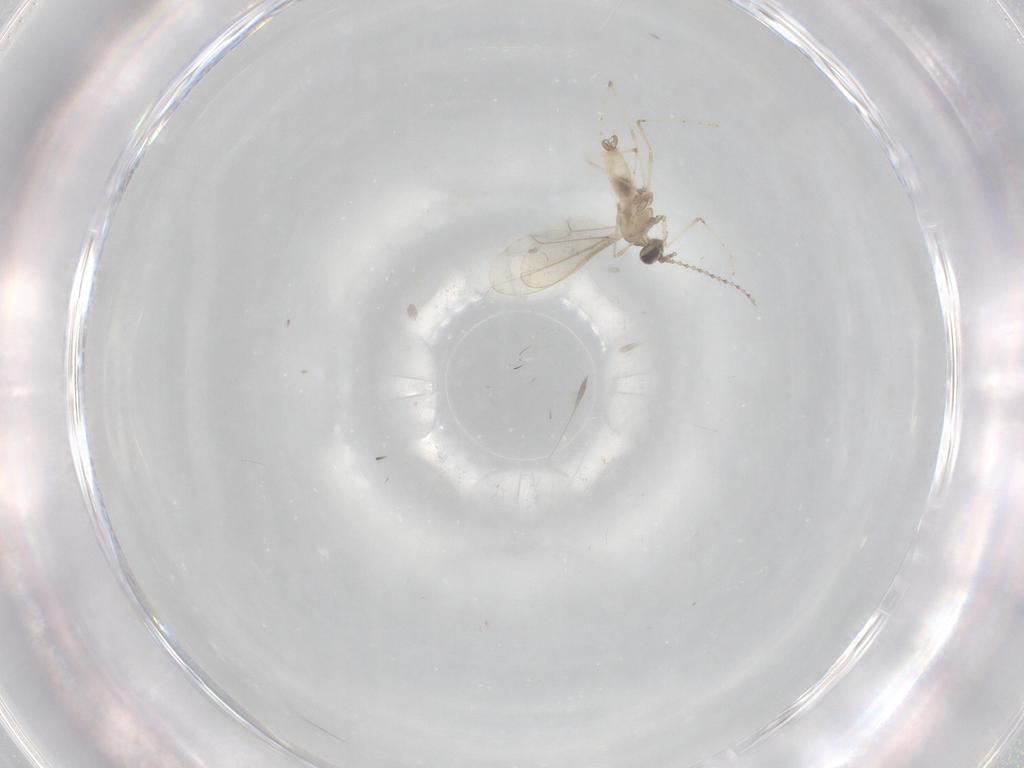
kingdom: Animalia
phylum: Arthropoda
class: Insecta
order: Diptera
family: Cecidomyiidae
